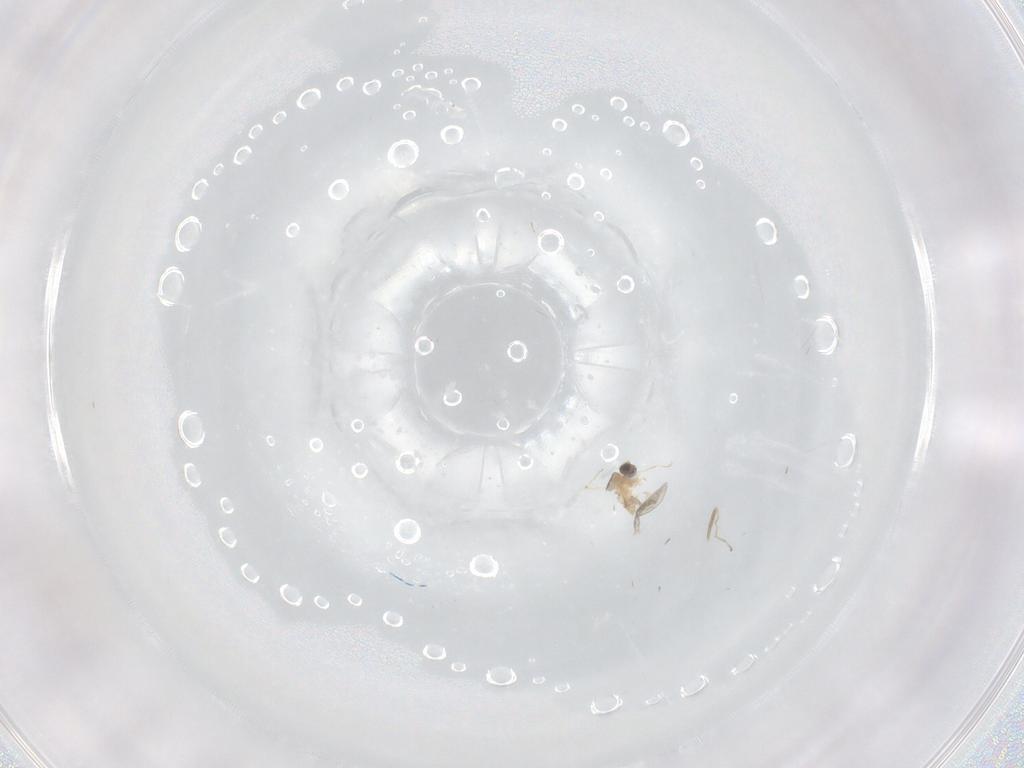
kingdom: Animalia
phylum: Arthropoda
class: Insecta
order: Diptera
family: Cecidomyiidae
